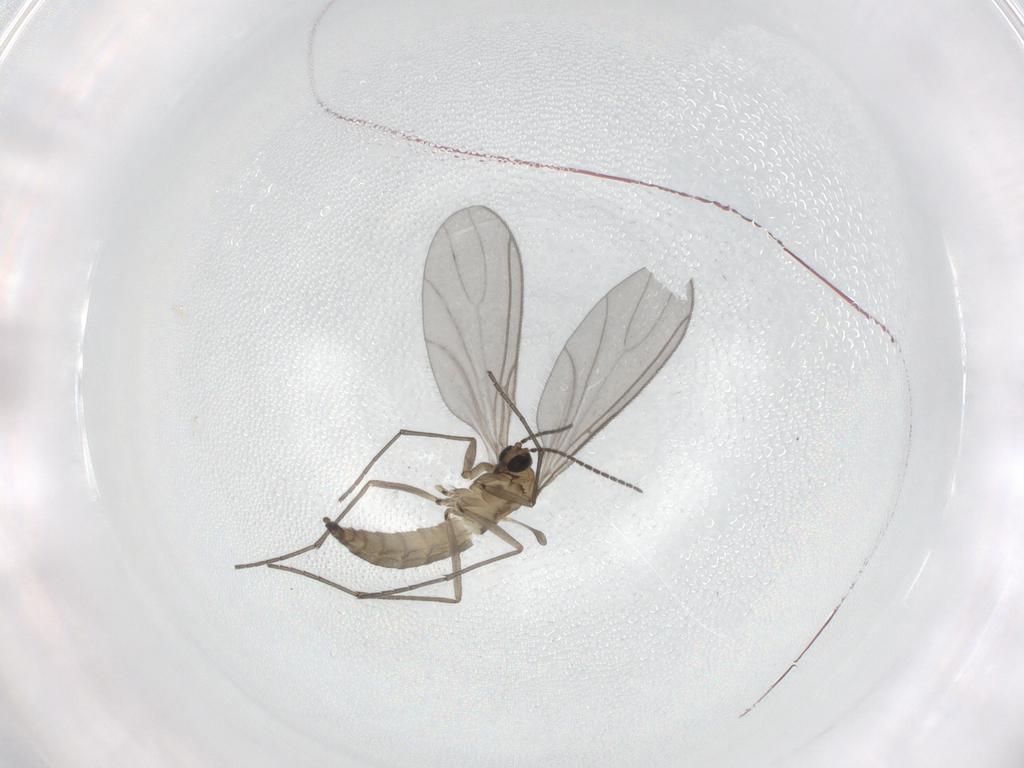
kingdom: Animalia
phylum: Arthropoda
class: Insecta
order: Diptera
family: Sciaridae
